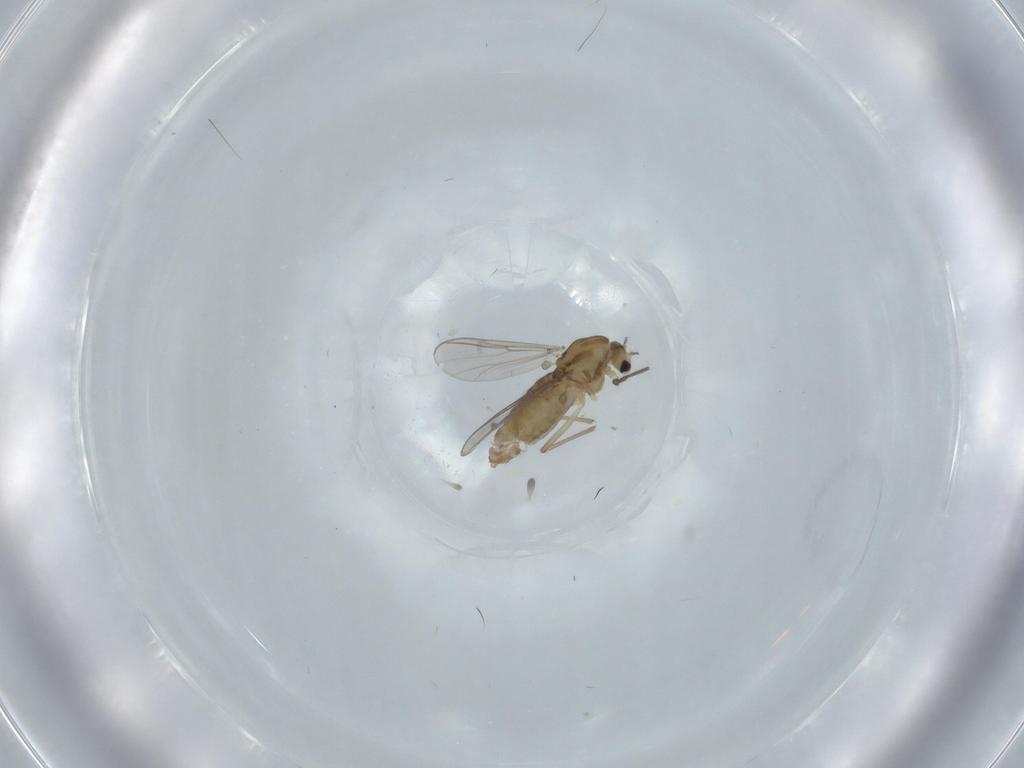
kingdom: Animalia
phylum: Arthropoda
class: Insecta
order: Diptera
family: Chironomidae
